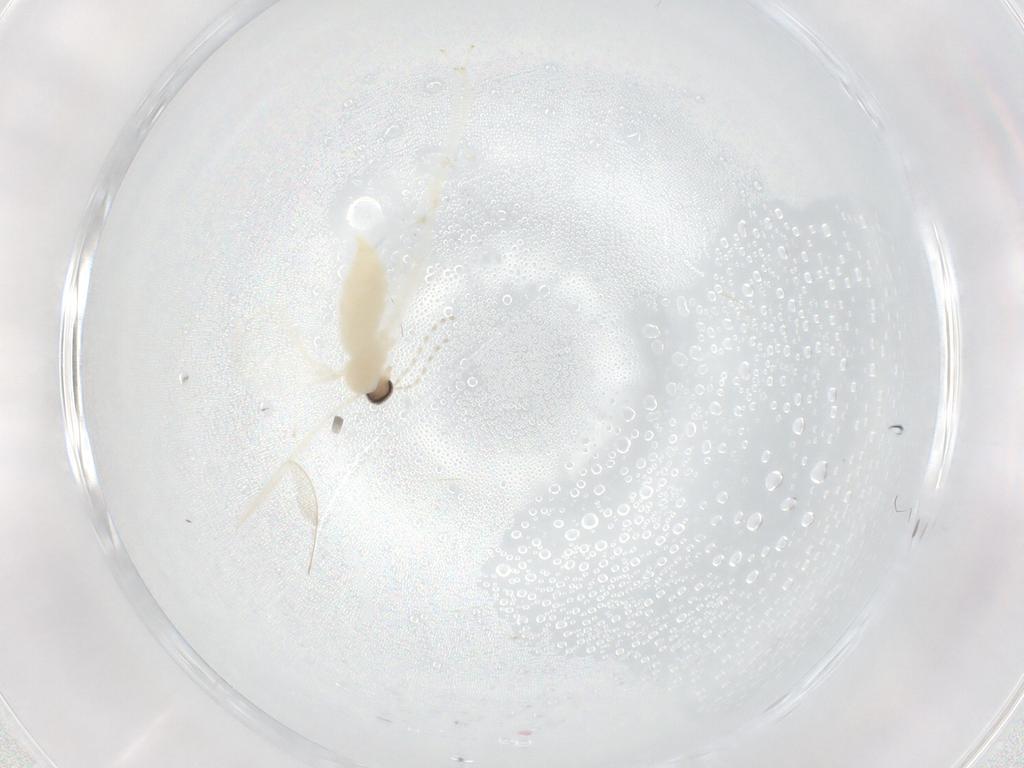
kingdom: Animalia
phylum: Arthropoda
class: Insecta
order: Diptera
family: Cecidomyiidae
